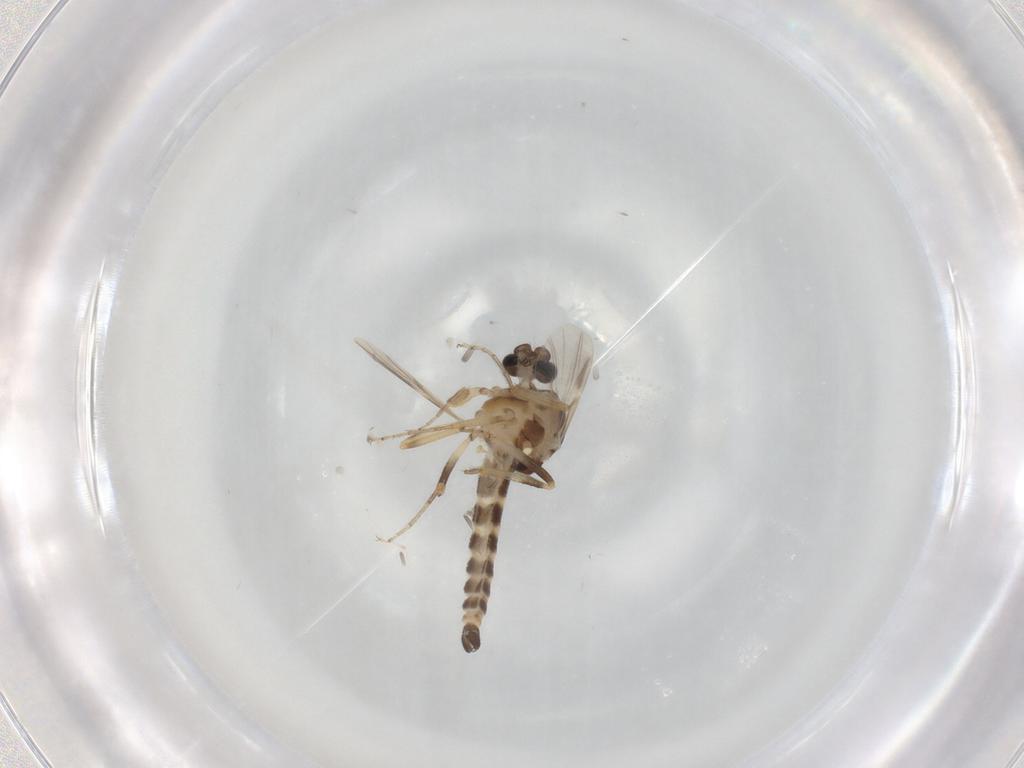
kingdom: Animalia
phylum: Arthropoda
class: Insecta
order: Diptera
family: Ceratopogonidae
